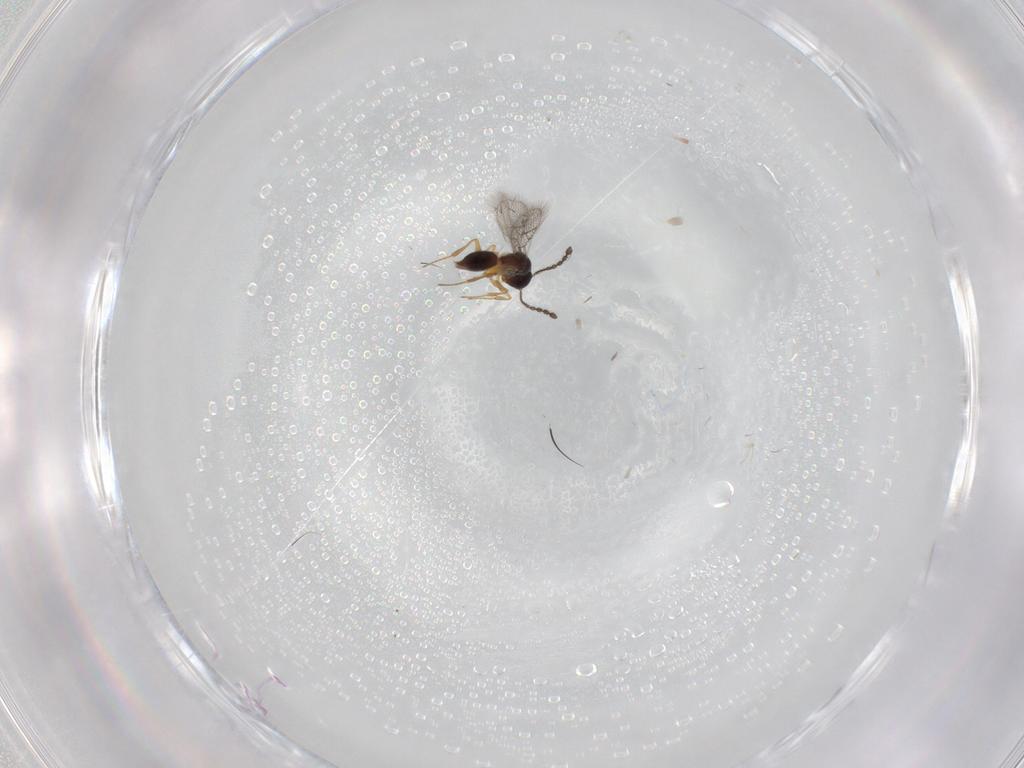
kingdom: Animalia
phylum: Arthropoda
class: Insecta
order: Hymenoptera
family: Figitidae
